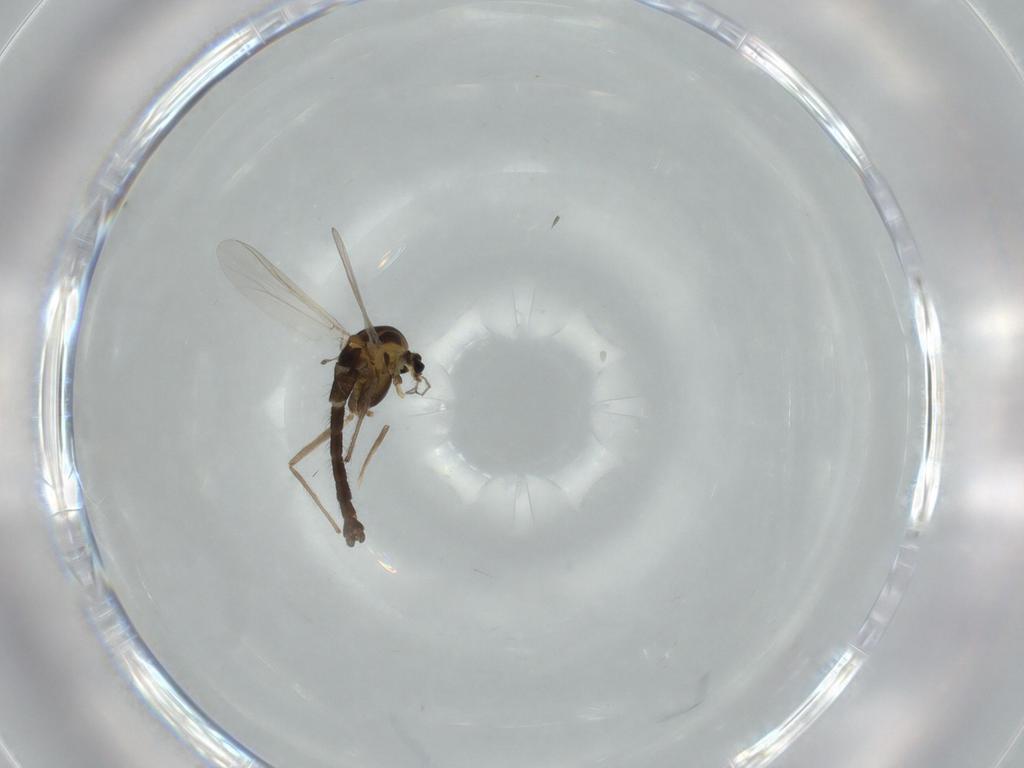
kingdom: Animalia
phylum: Arthropoda
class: Insecta
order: Diptera
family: Chironomidae
